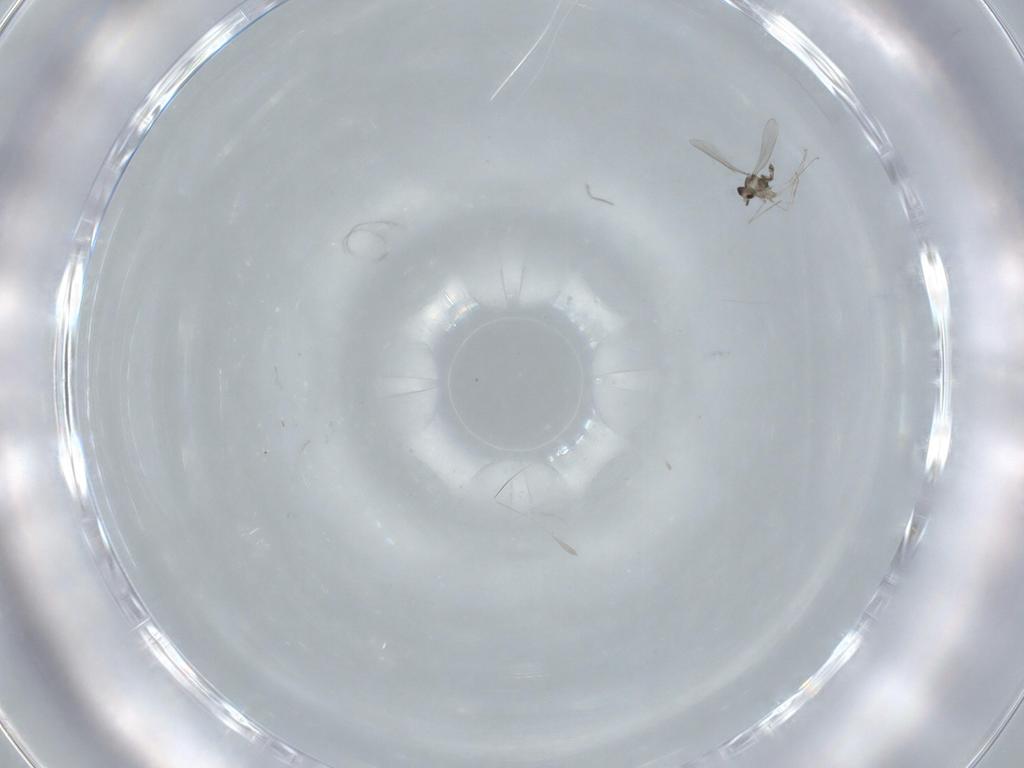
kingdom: Animalia
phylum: Arthropoda
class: Insecta
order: Diptera
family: Cecidomyiidae
